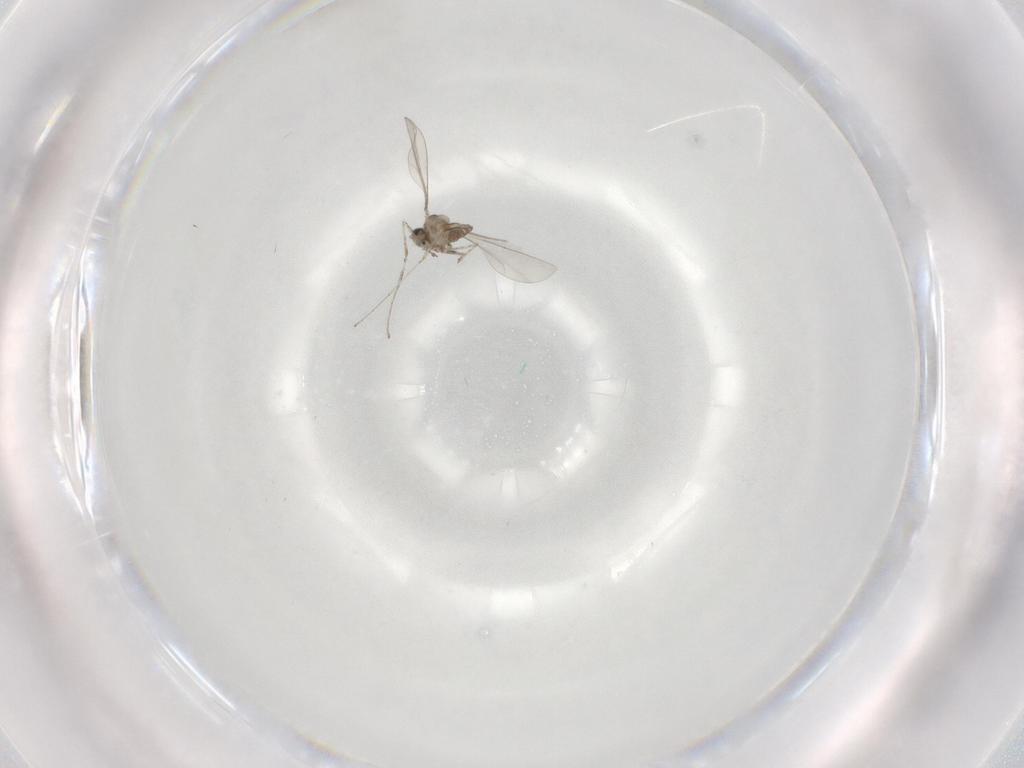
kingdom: Animalia
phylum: Arthropoda
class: Insecta
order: Diptera
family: Cecidomyiidae
